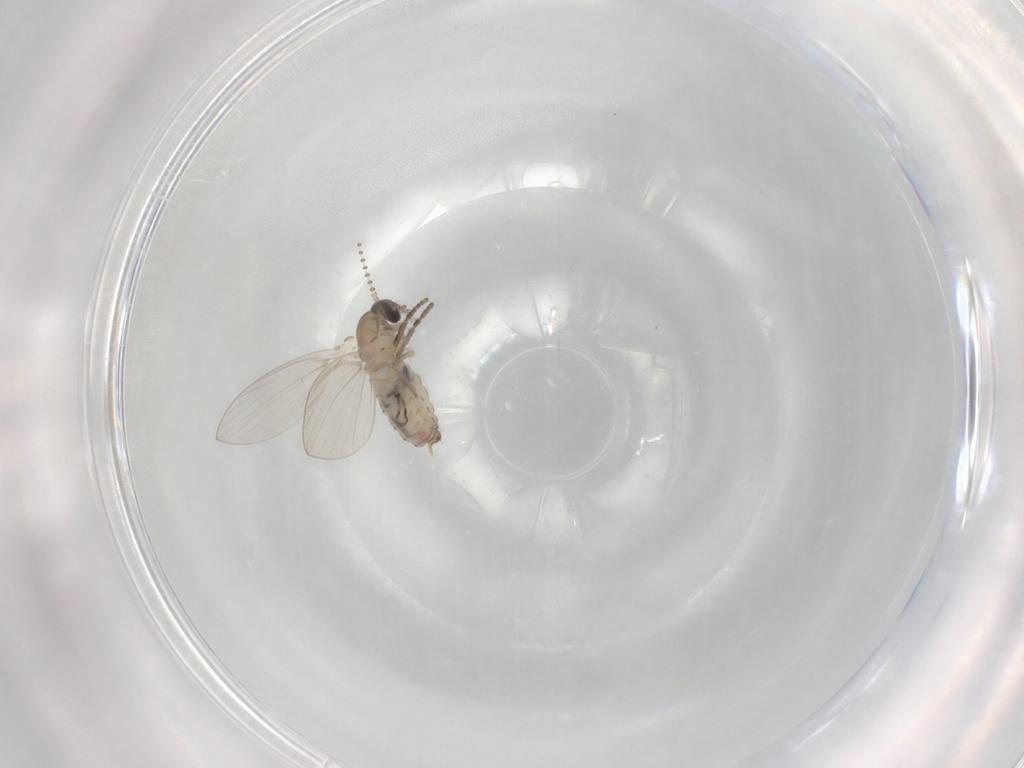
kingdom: Animalia
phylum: Arthropoda
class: Insecta
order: Diptera
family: Psychodidae
